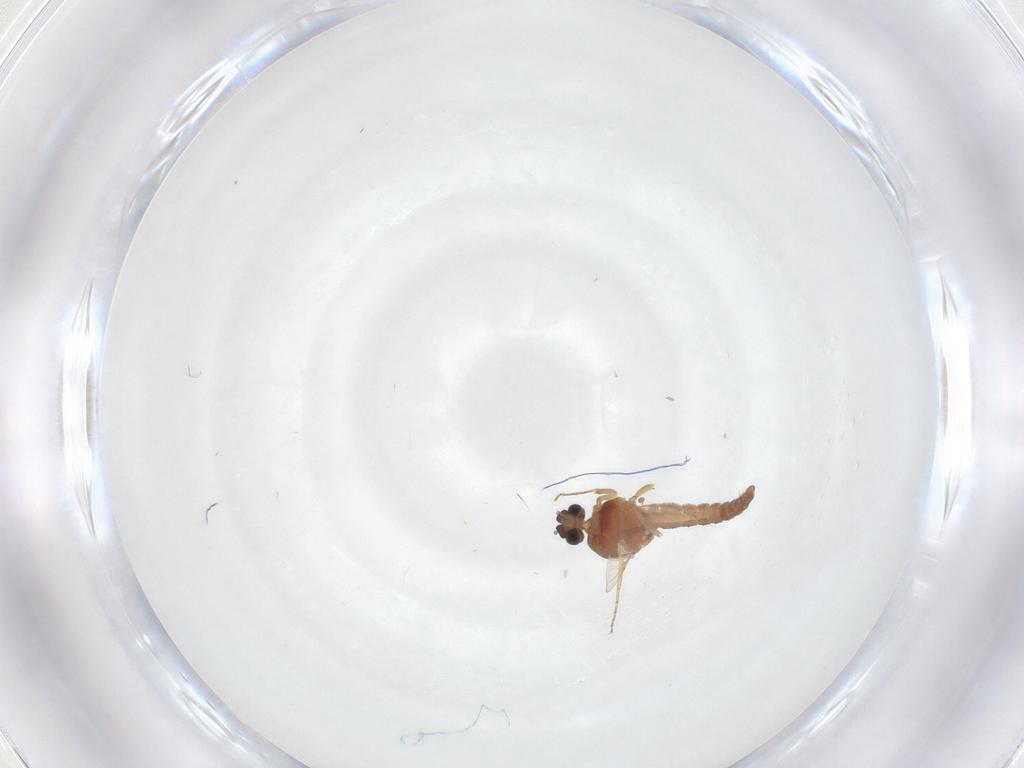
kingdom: Animalia
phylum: Arthropoda
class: Insecta
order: Diptera
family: Ceratopogonidae
